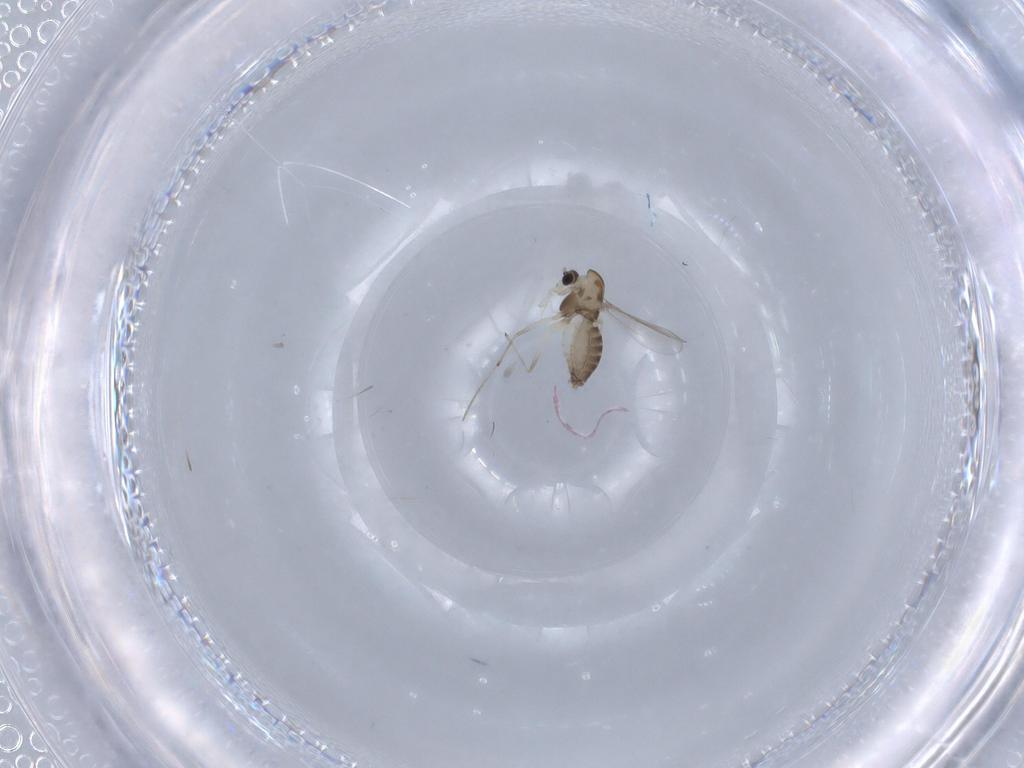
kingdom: Animalia
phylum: Arthropoda
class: Insecta
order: Diptera
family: Chironomidae
